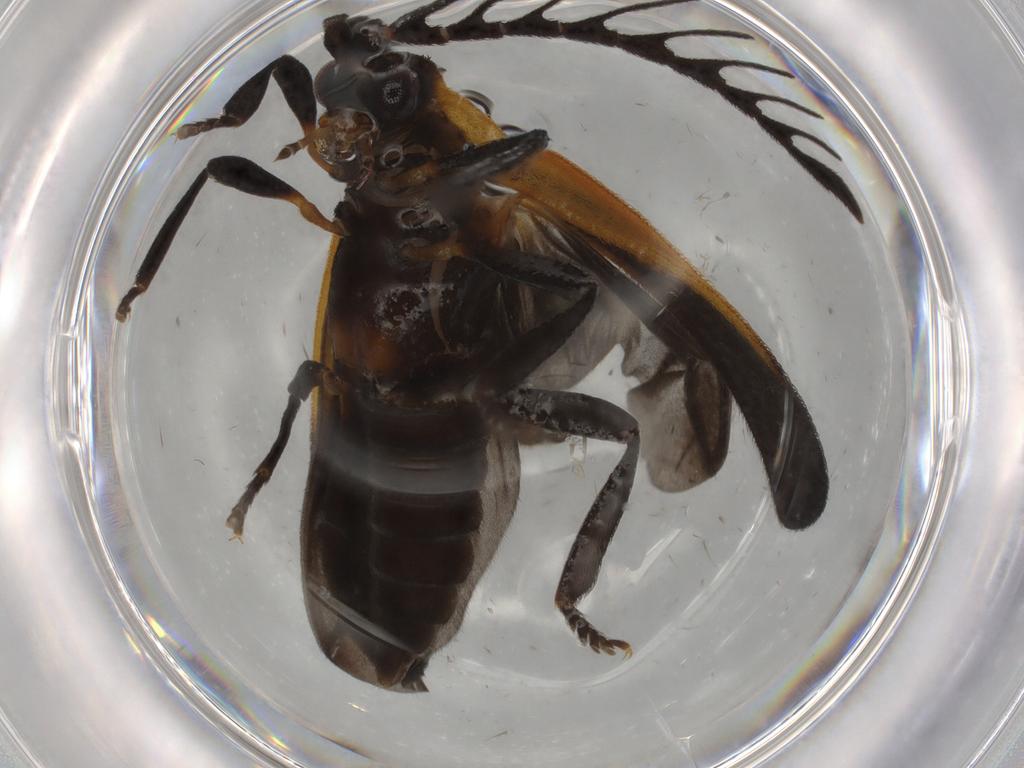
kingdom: Animalia
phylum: Arthropoda
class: Insecta
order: Coleoptera
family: Lycidae
